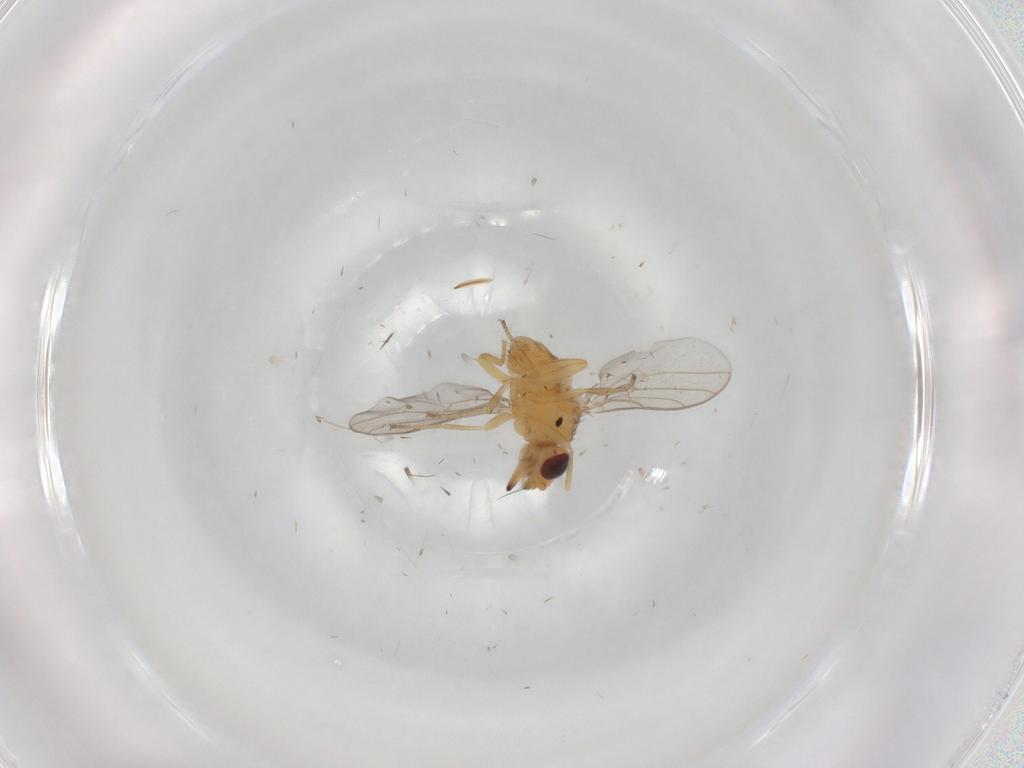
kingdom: Animalia
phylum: Arthropoda
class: Insecta
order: Diptera
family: Chloropidae
